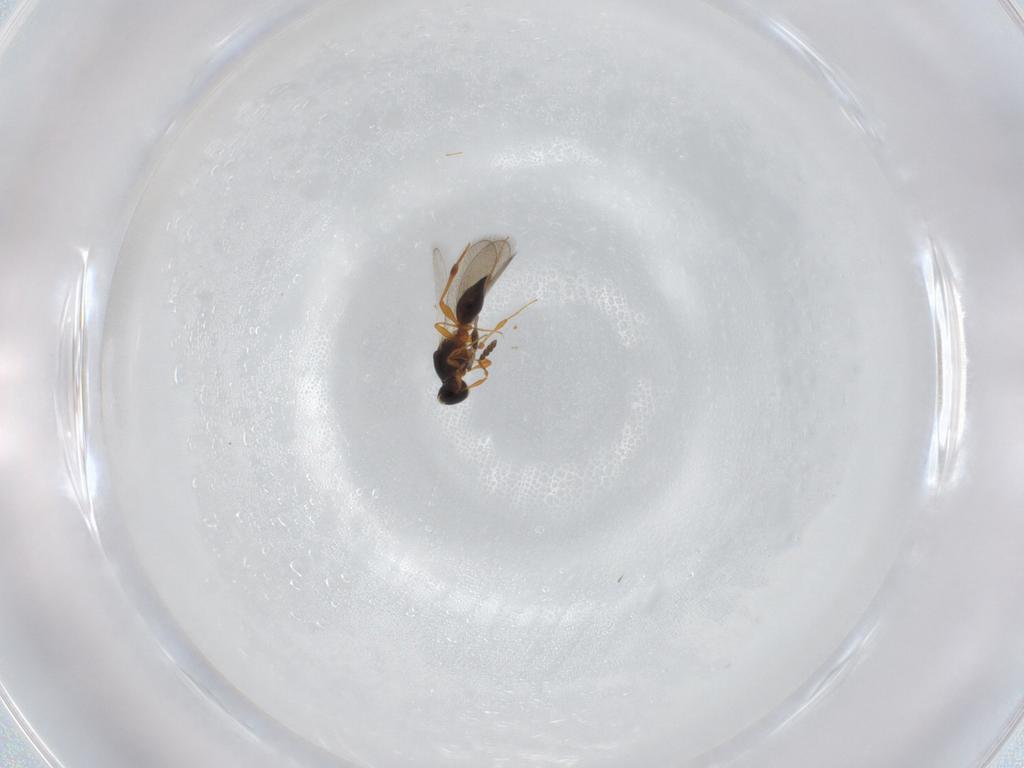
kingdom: Animalia
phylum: Arthropoda
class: Insecta
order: Hymenoptera
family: Platygastridae
